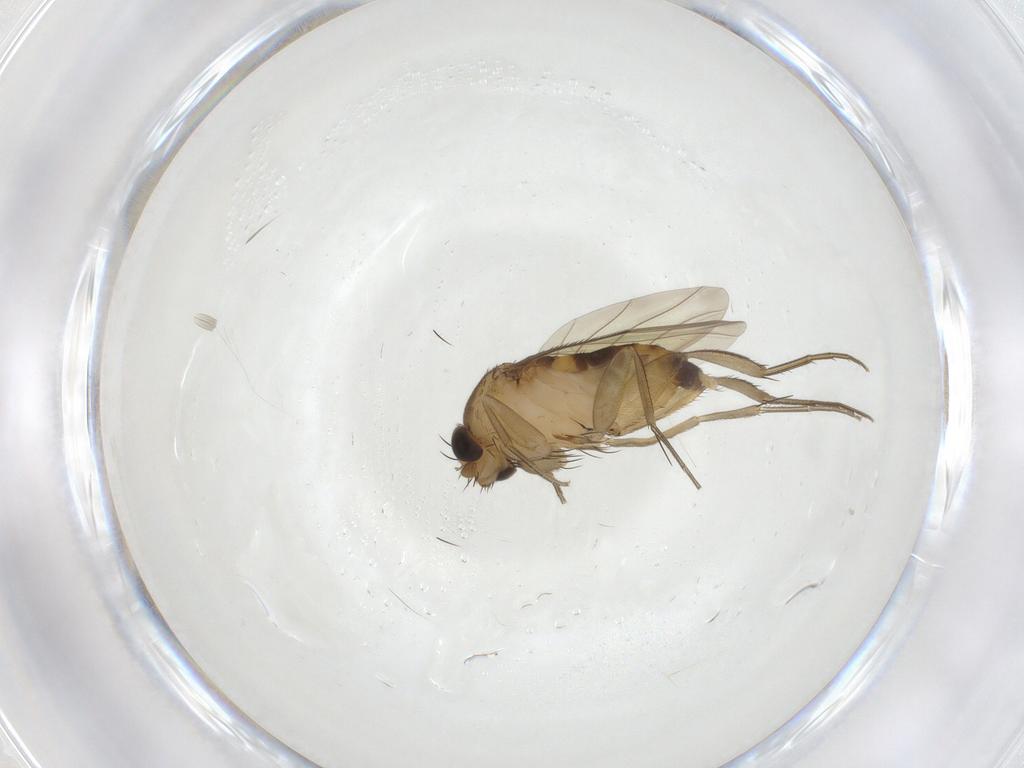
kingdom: Animalia
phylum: Arthropoda
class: Insecta
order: Diptera
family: Phoridae
